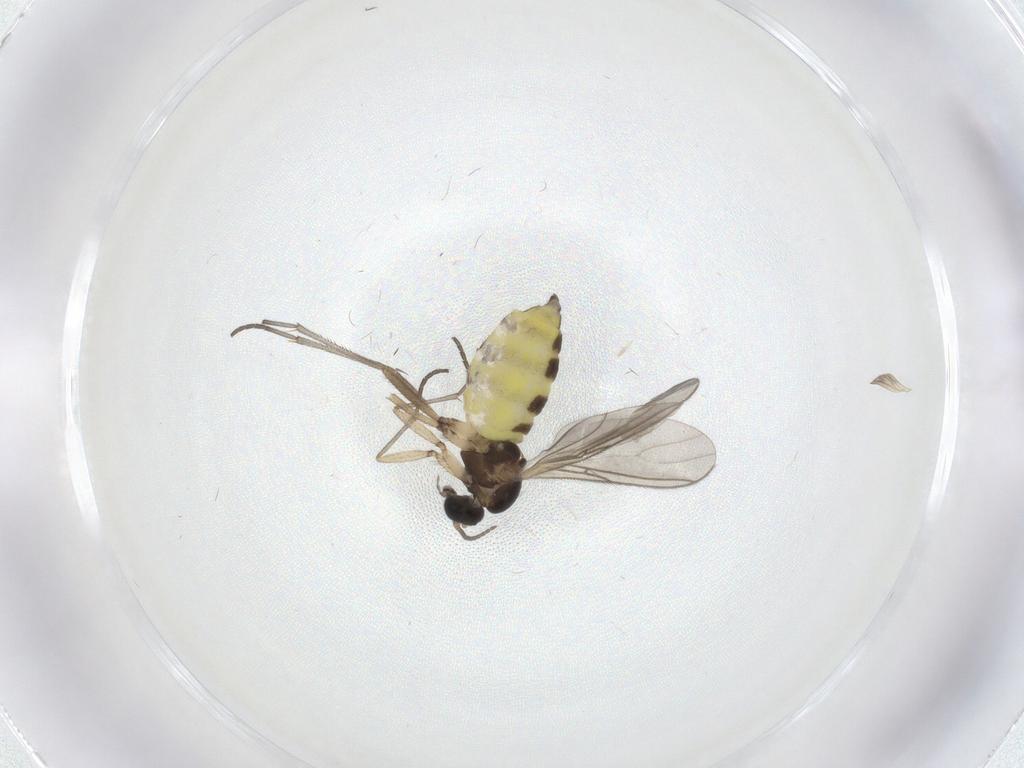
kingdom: Animalia
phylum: Arthropoda
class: Insecta
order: Diptera
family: Sciaridae
